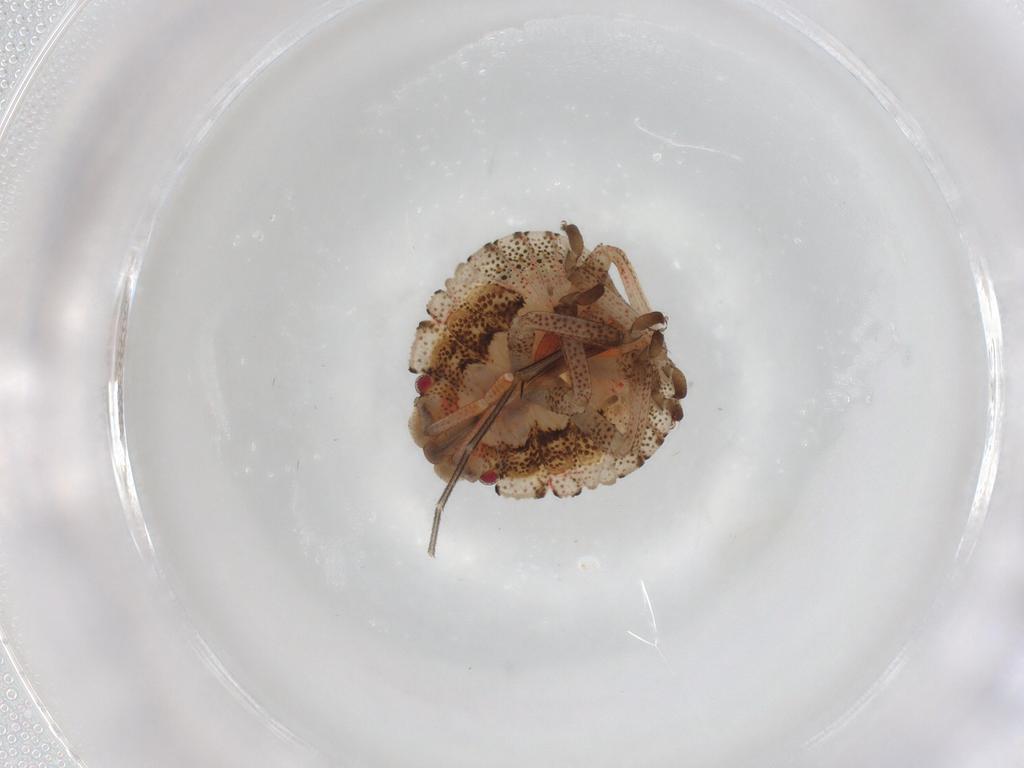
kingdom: Animalia
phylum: Arthropoda
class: Insecta
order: Hemiptera
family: Pentatomidae
